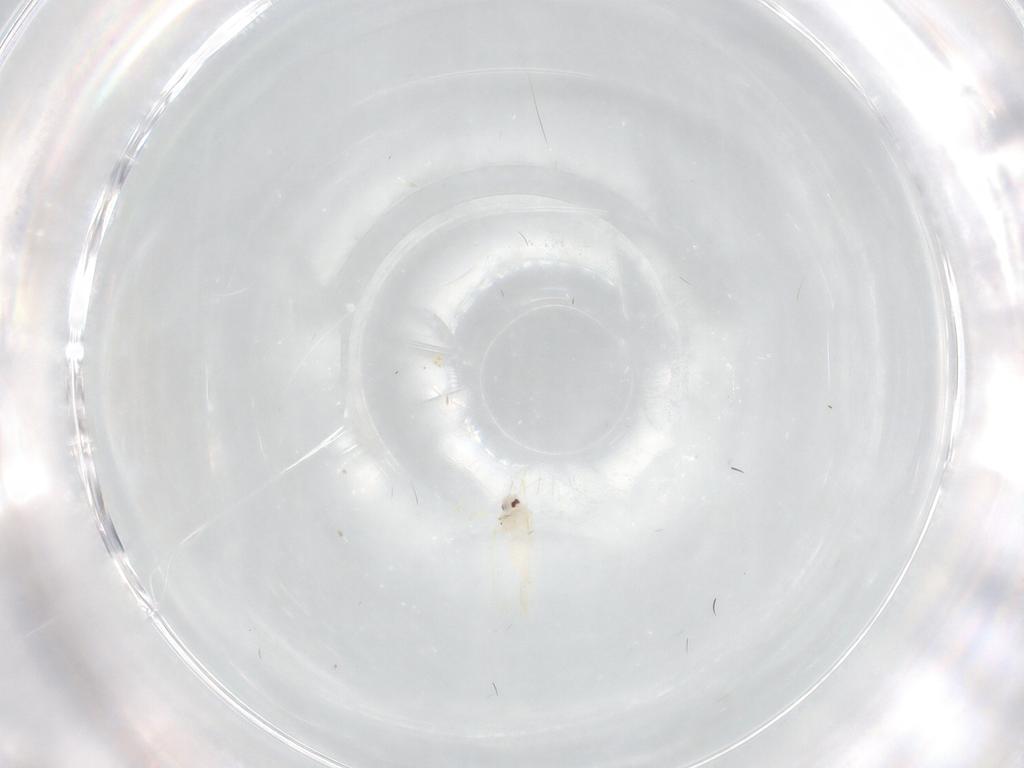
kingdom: Animalia
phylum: Arthropoda
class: Insecta
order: Hemiptera
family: Aleyrodidae
